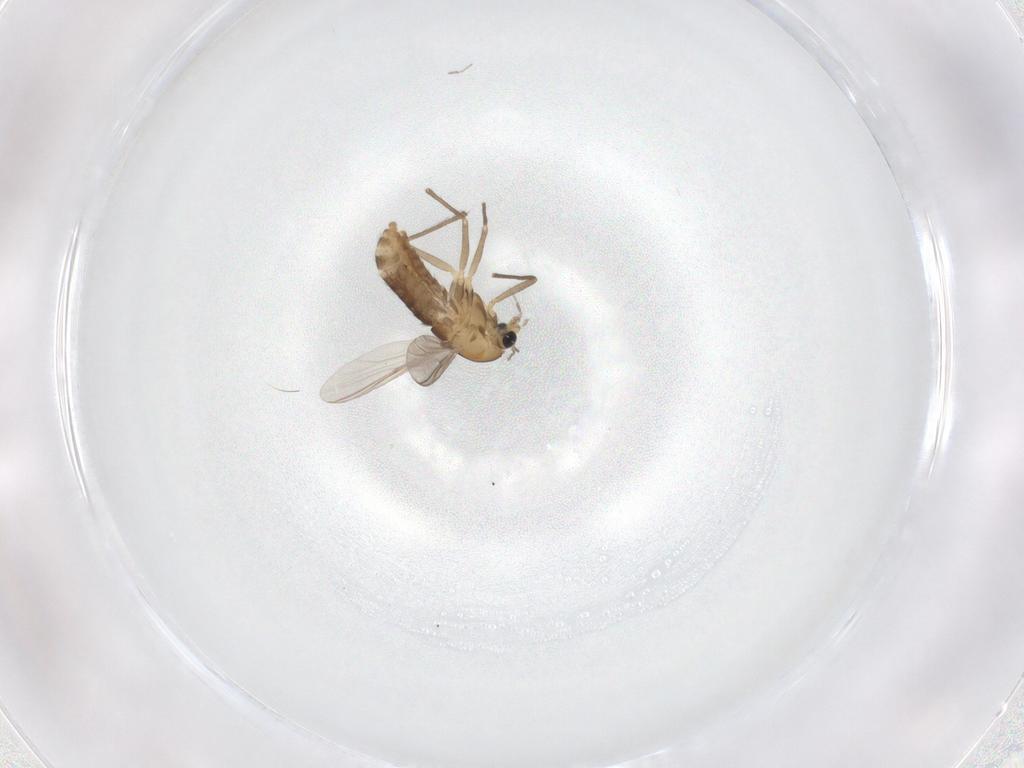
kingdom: Animalia
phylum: Arthropoda
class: Insecta
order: Diptera
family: Chironomidae
